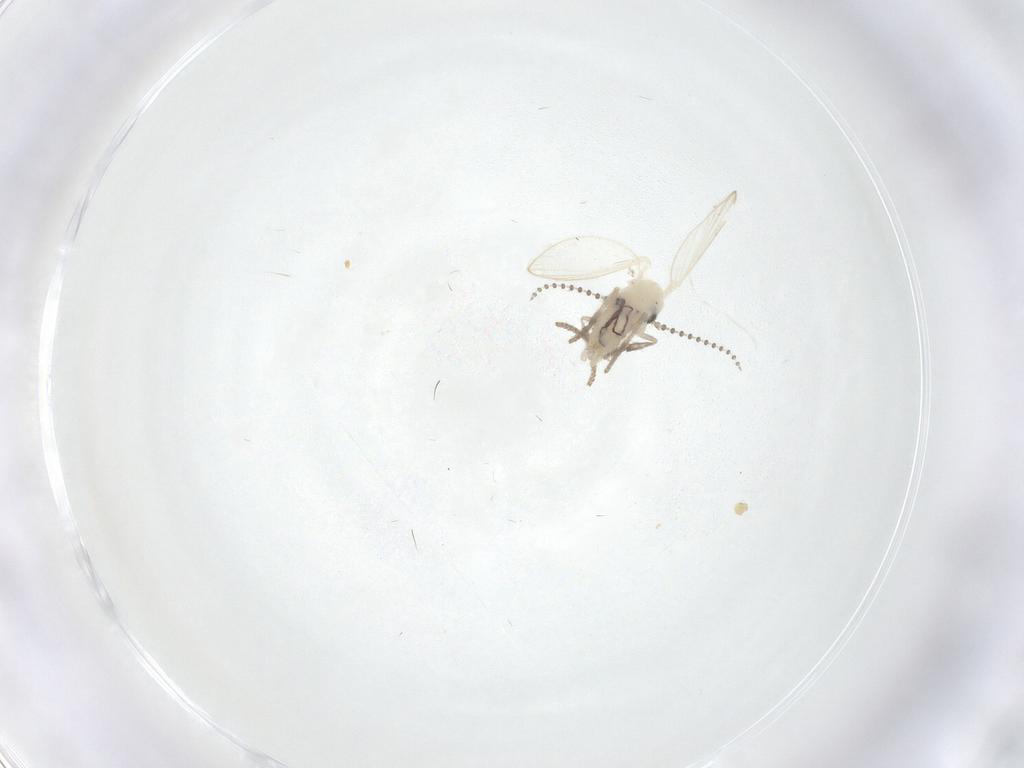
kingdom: Animalia
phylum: Arthropoda
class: Insecta
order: Diptera
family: Psychodidae
